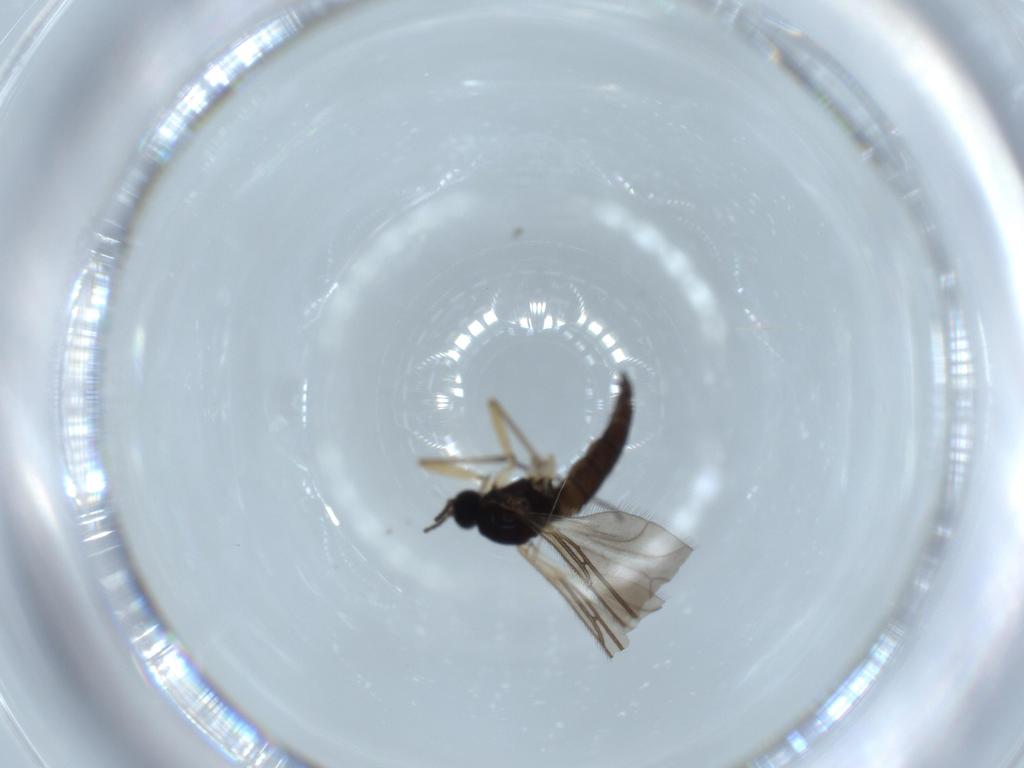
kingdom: Animalia
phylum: Arthropoda
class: Insecta
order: Diptera
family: Sciaridae
